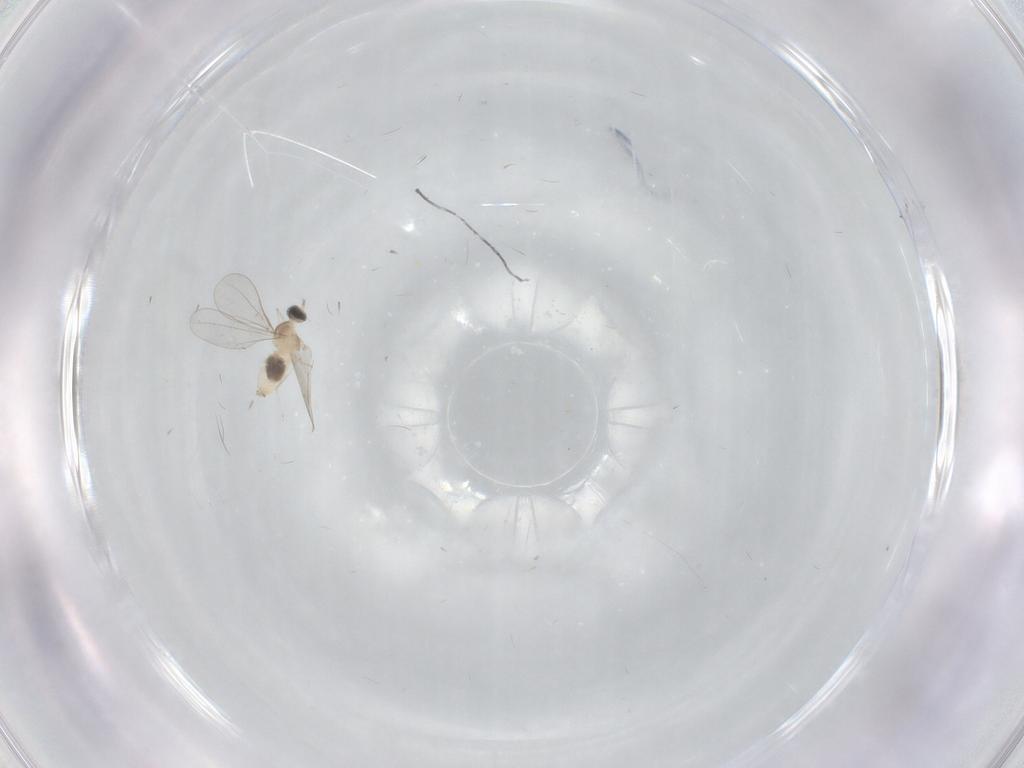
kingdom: Animalia
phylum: Arthropoda
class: Insecta
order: Diptera
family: Cecidomyiidae
